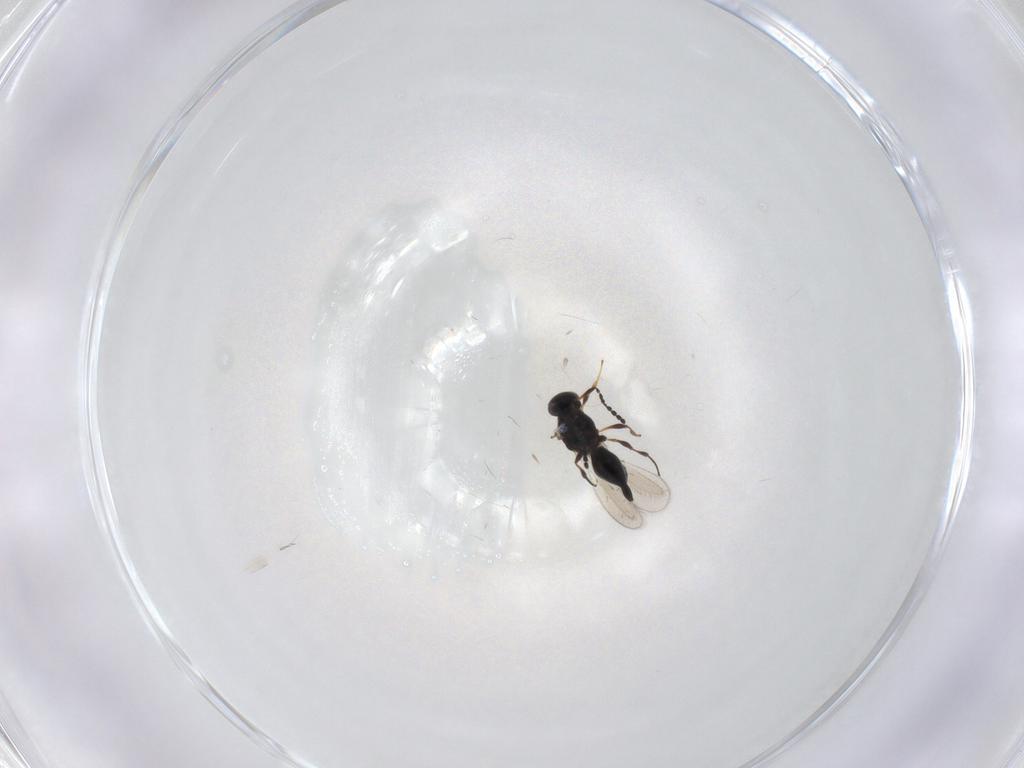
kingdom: Animalia
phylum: Arthropoda
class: Insecta
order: Hymenoptera
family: Platygastridae
